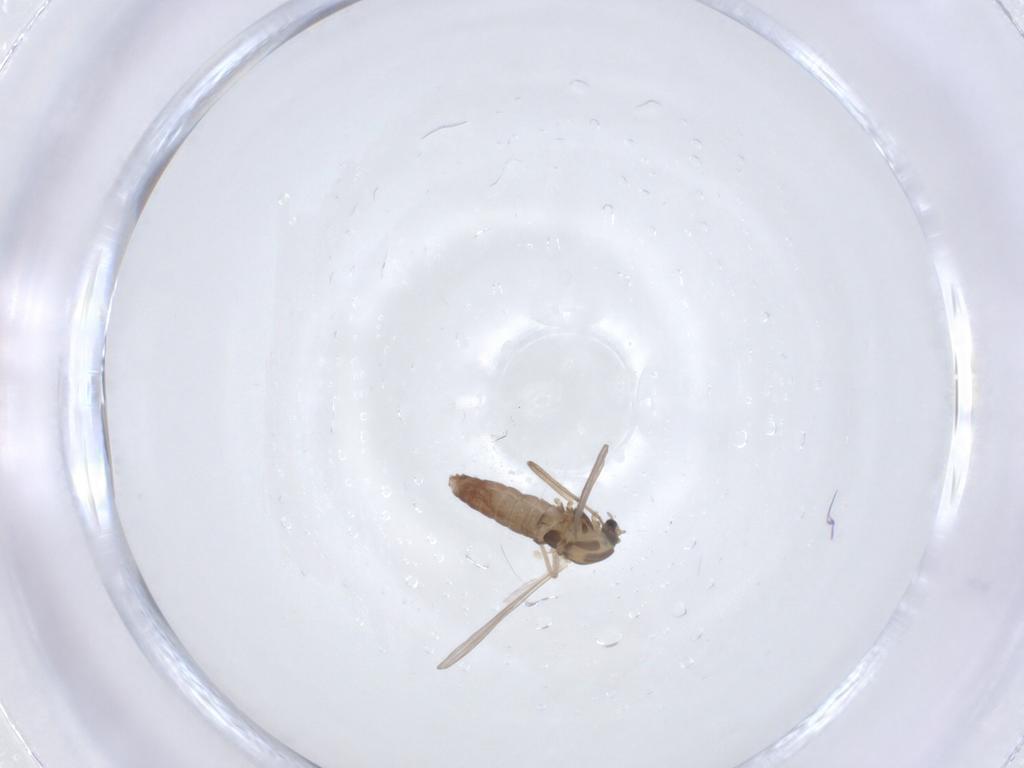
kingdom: Animalia
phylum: Arthropoda
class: Insecta
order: Diptera
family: Chironomidae
